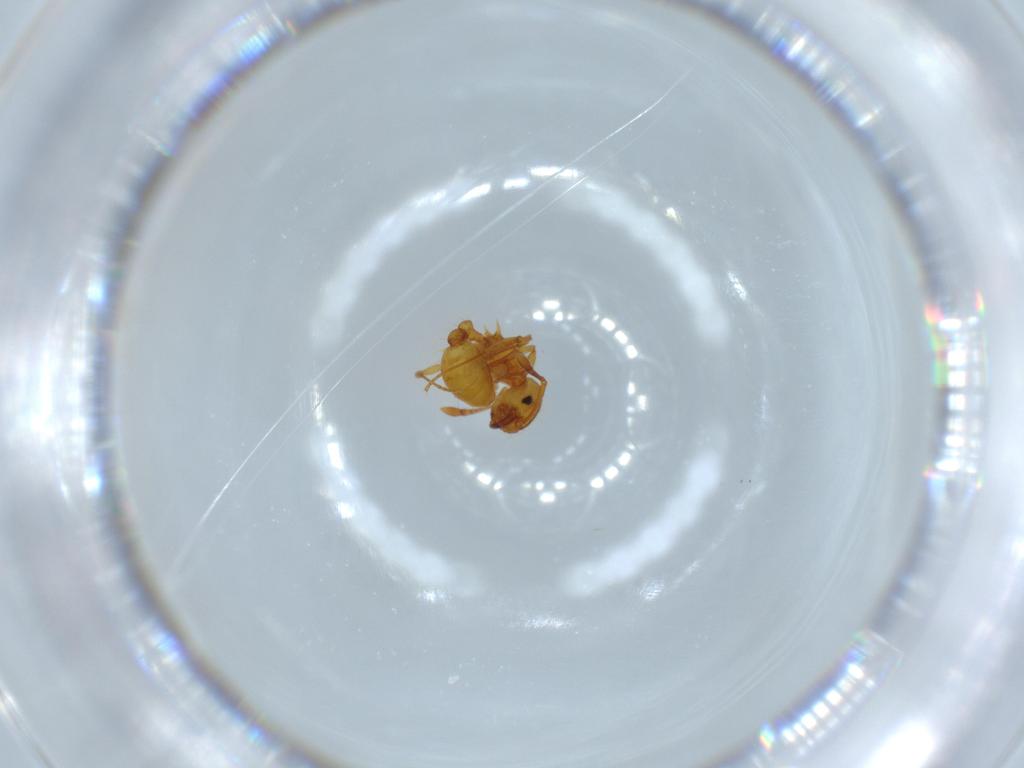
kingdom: Animalia
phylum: Arthropoda
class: Insecta
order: Hymenoptera
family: Formicidae
